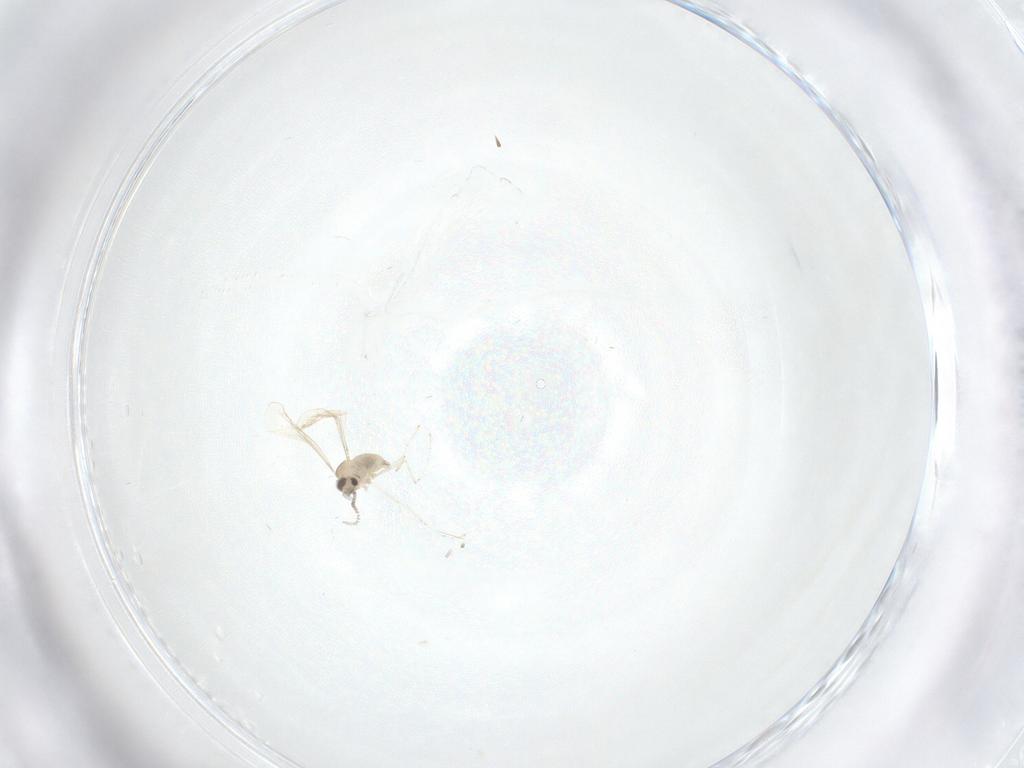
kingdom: Animalia
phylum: Arthropoda
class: Insecta
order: Diptera
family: Cecidomyiidae
